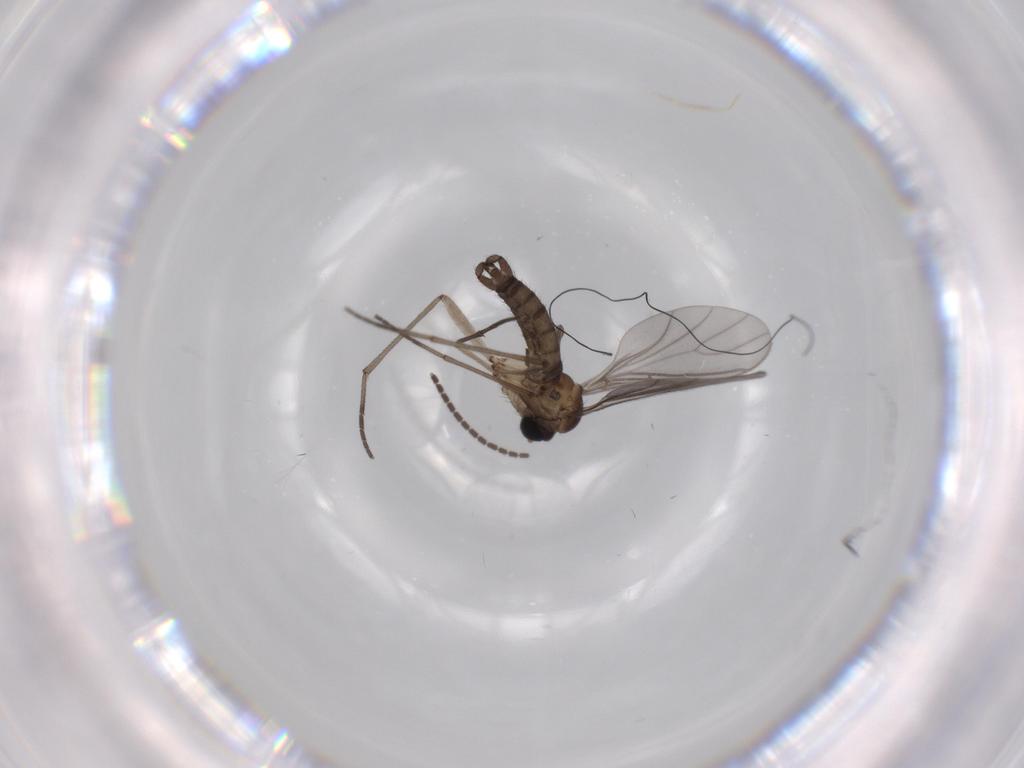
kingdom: Animalia
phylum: Arthropoda
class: Insecta
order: Diptera
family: Sciaridae
